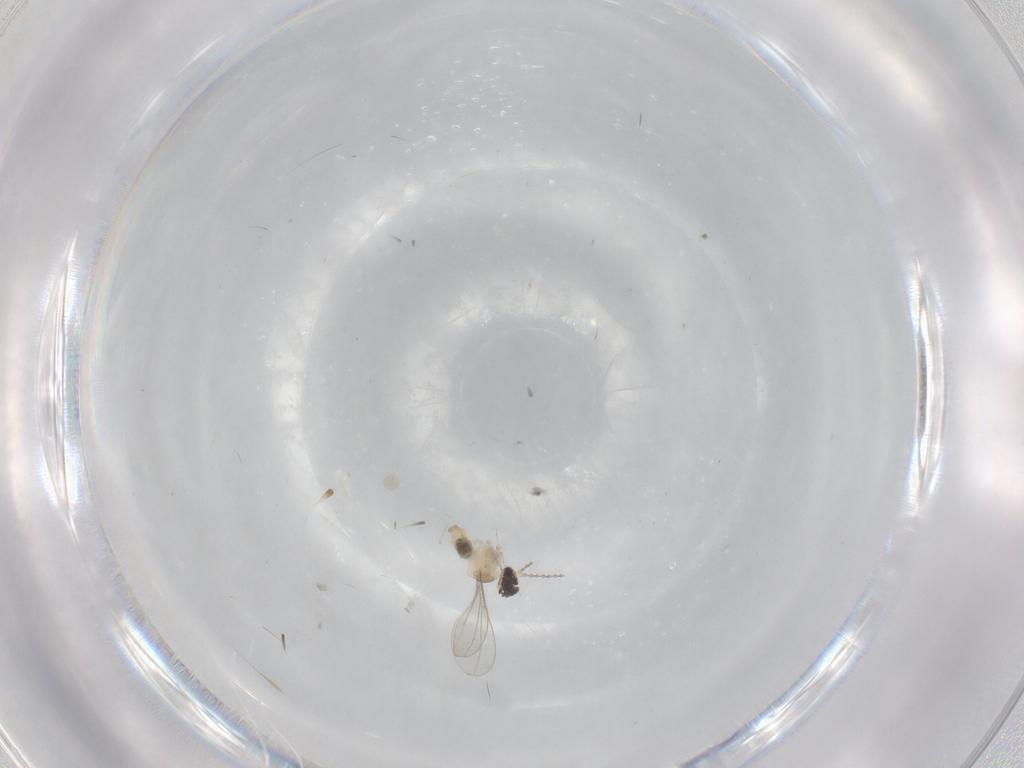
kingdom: Animalia
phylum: Arthropoda
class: Insecta
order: Diptera
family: Cecidomyiidae
